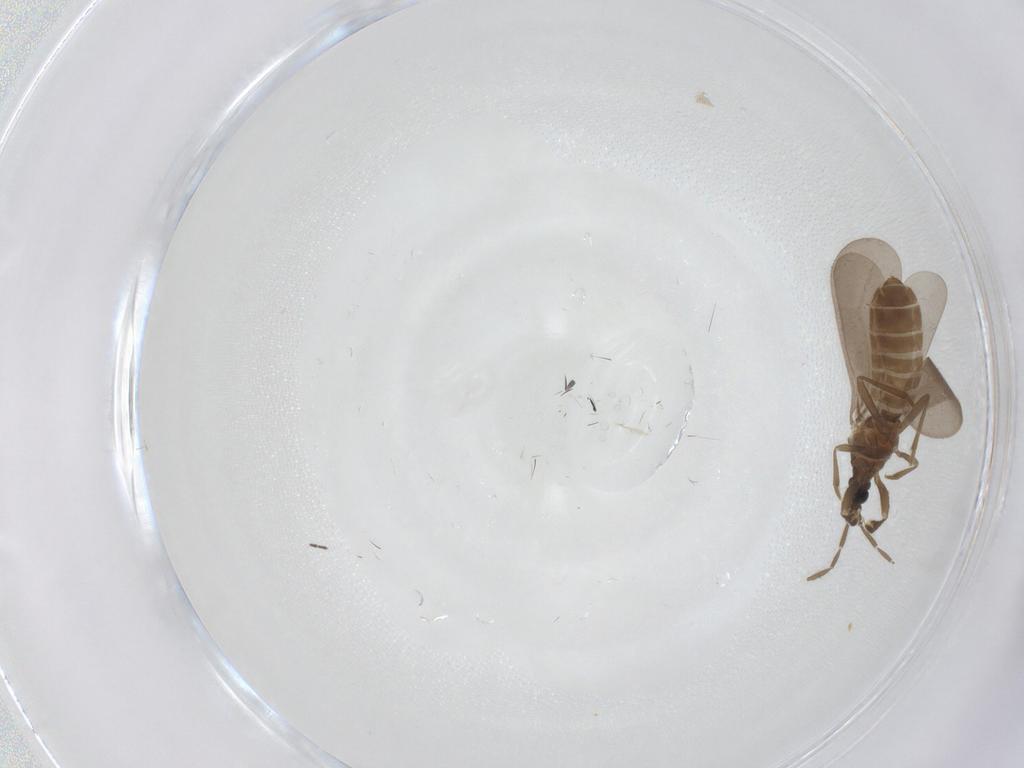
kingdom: Animalia
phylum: Arthropoda
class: Insecta
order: Hemiptera
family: Enicocephalidae
